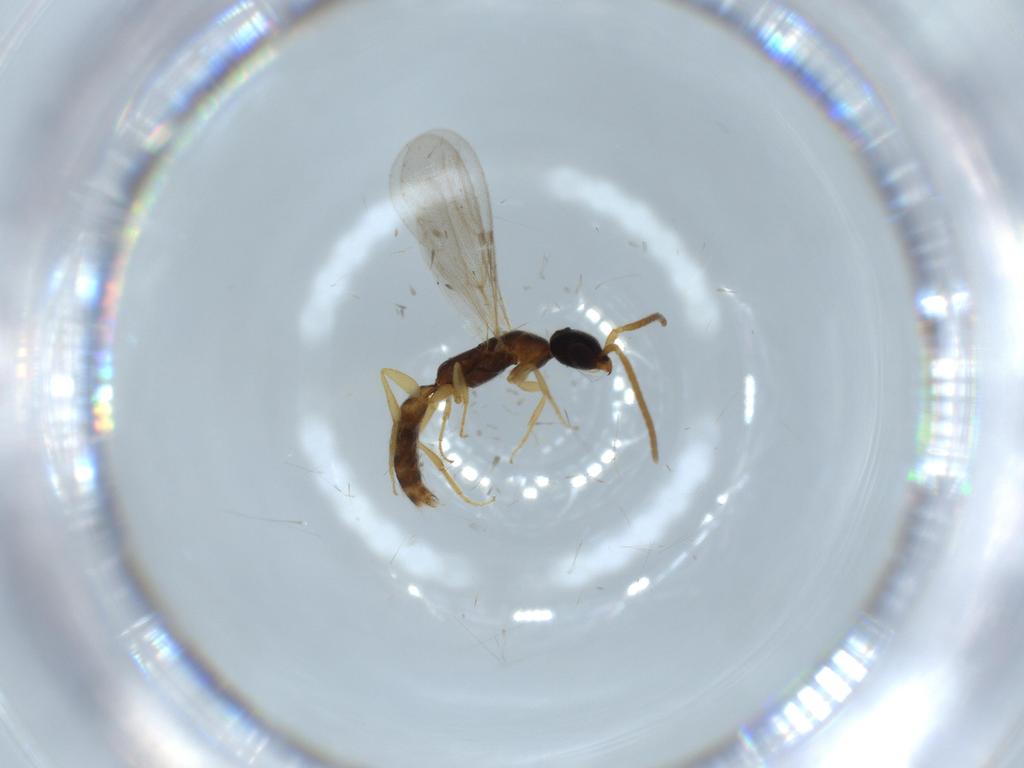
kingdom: Animalia
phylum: Arthropoda
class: Insecta
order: Hymenoptera
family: Bethylidae
